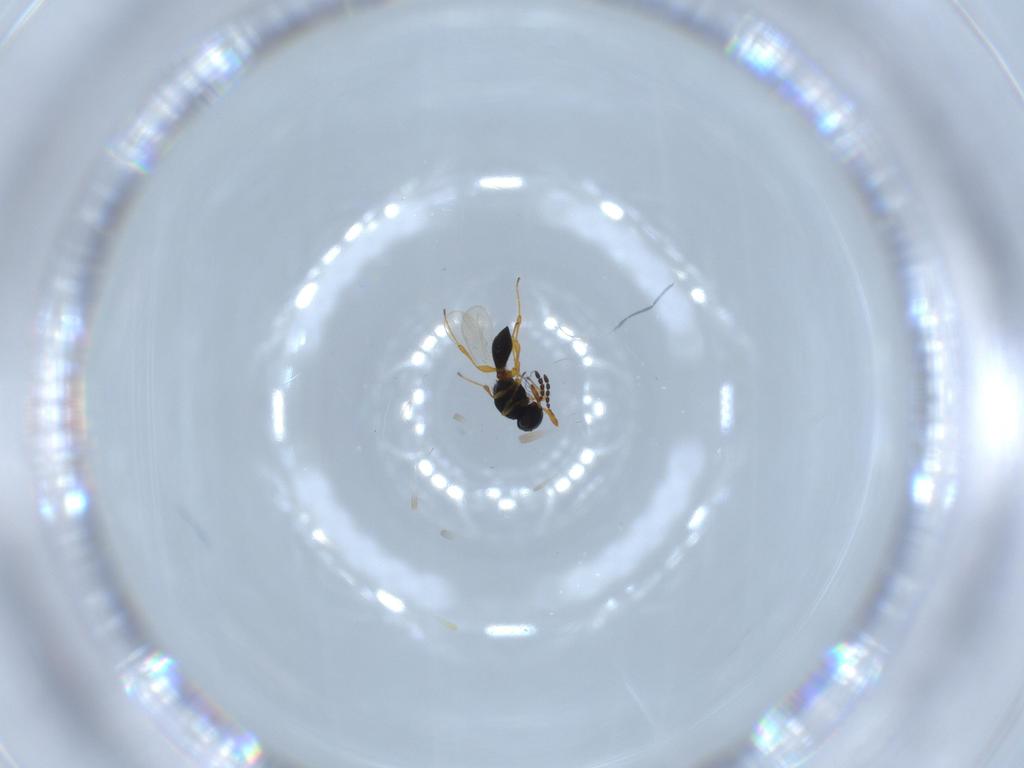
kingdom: Animalia
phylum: Arthropoda
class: Insecta
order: Hymenoptera
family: Platygastridae
